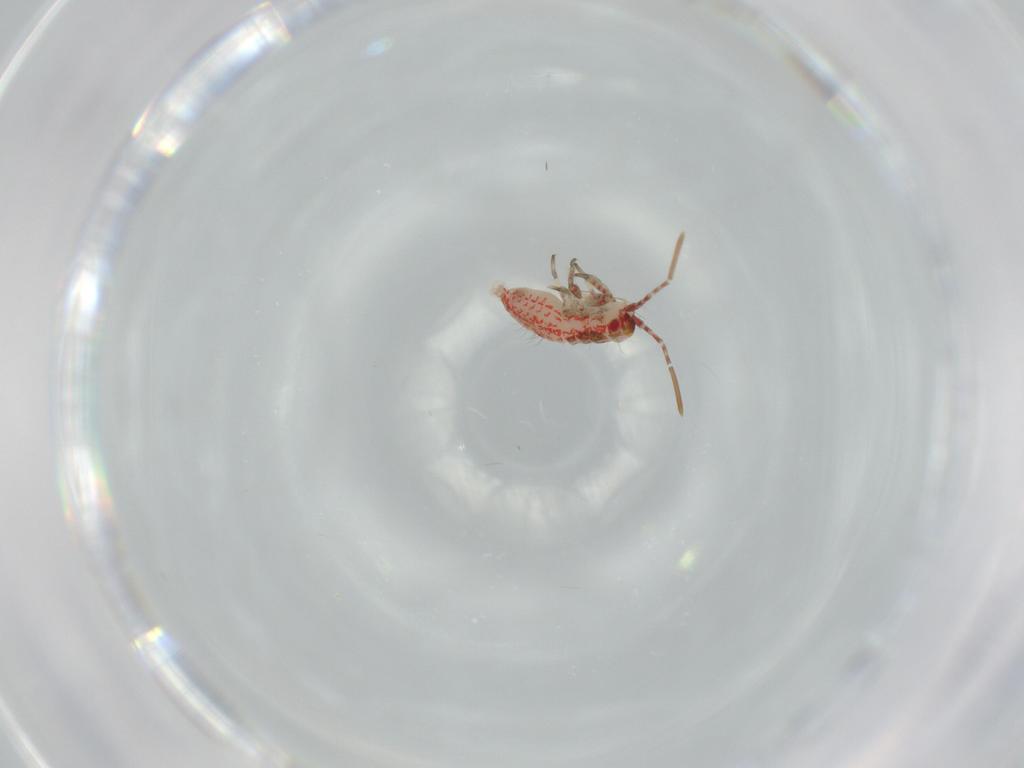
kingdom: Animalia
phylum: Arthropoda
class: Insecta
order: Hemiptera
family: Miridae
